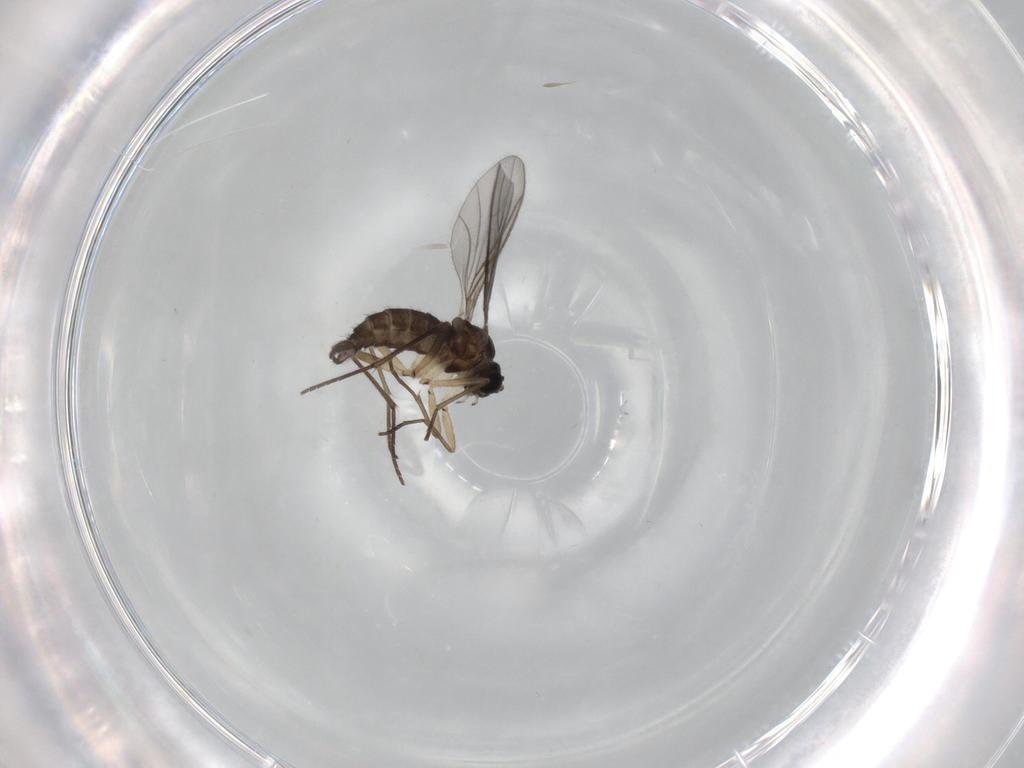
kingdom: Animalia
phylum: Arthropoda
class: Insecta
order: Diptera
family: Sciaridae
